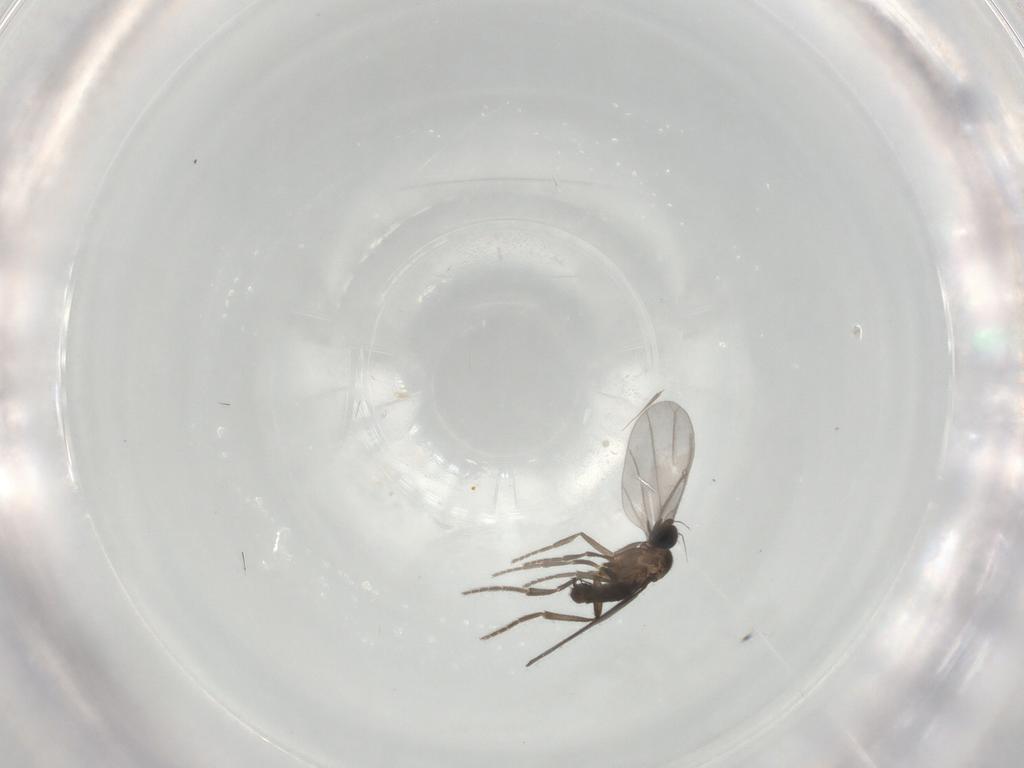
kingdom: Animalia
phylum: Arthropoda
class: Insecta
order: Diptera
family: Phoridae
